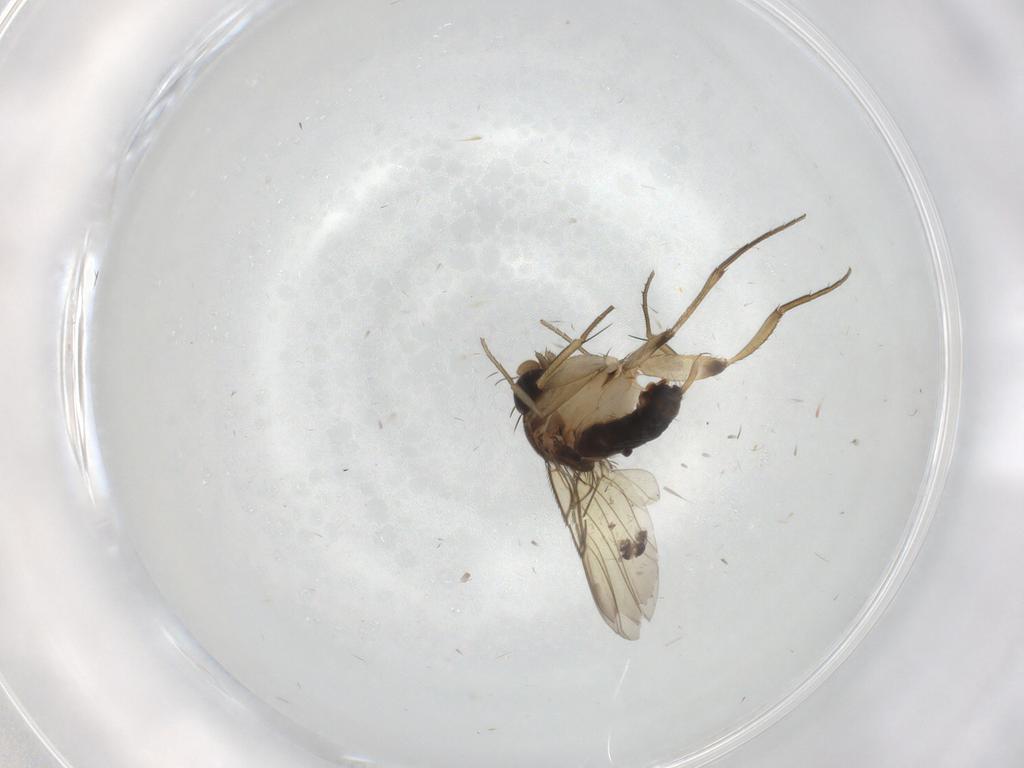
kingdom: Animalia
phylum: Arthropoda
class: Insecta
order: Diptera
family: Phoridae
